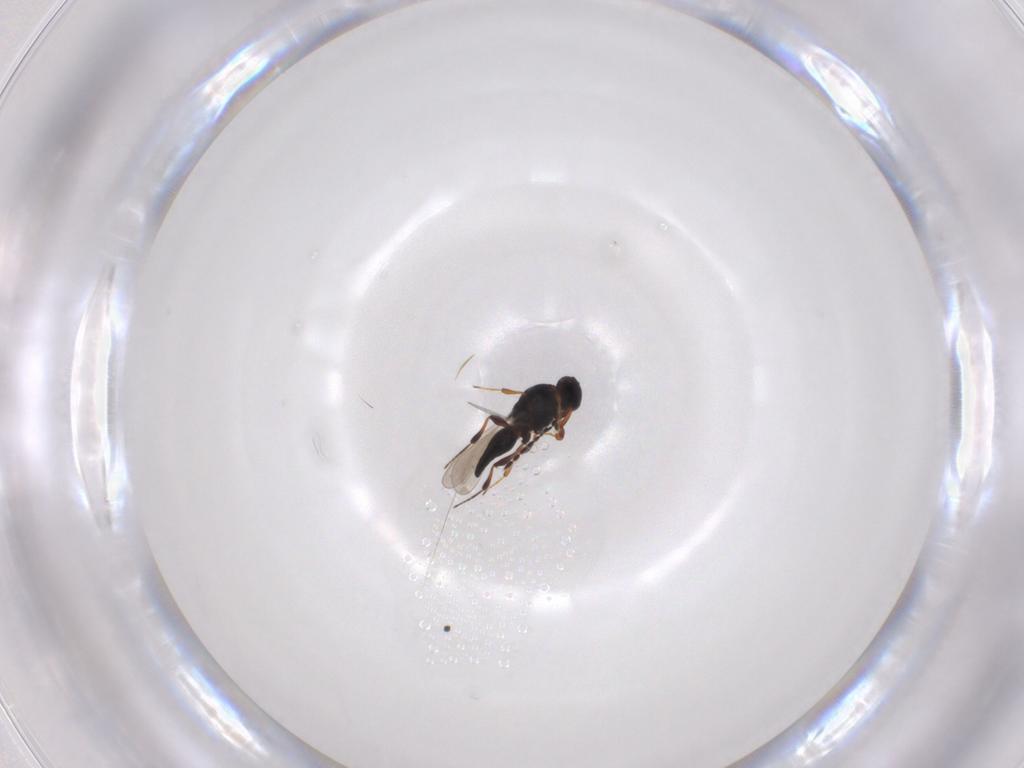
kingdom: Animalia
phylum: Arthropoda
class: Insecta
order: Hymenoptera
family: Platygastridae
